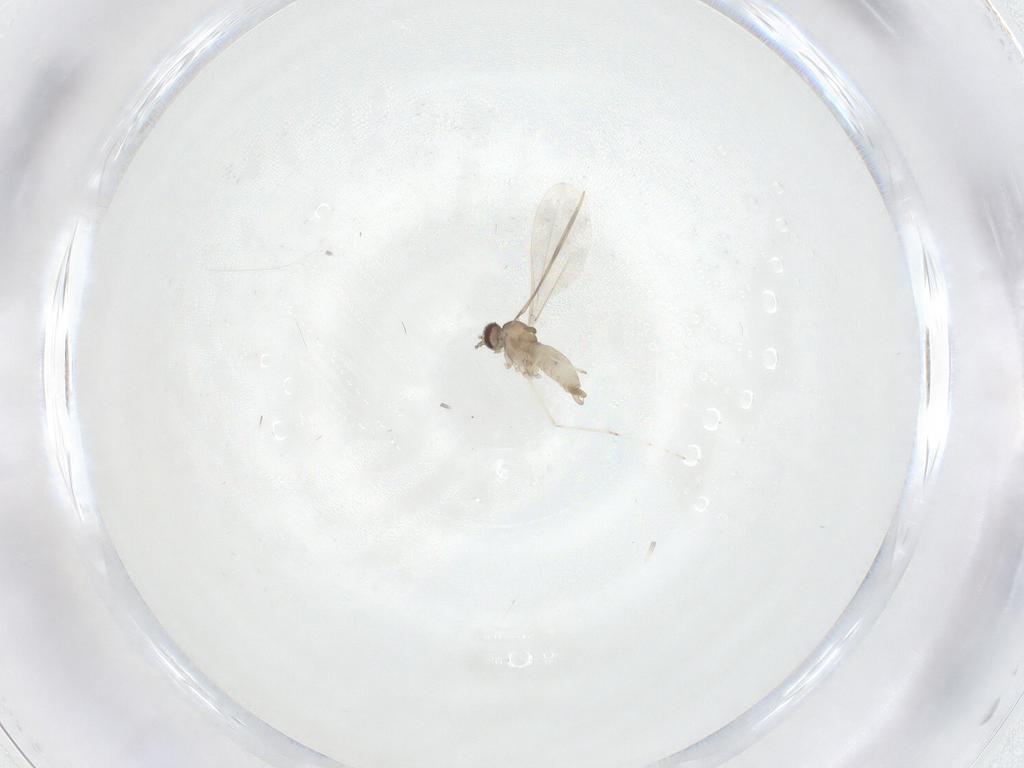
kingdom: Animalia
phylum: Arthropoda
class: Insecta
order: Diptera
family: Cecidomyiidae
